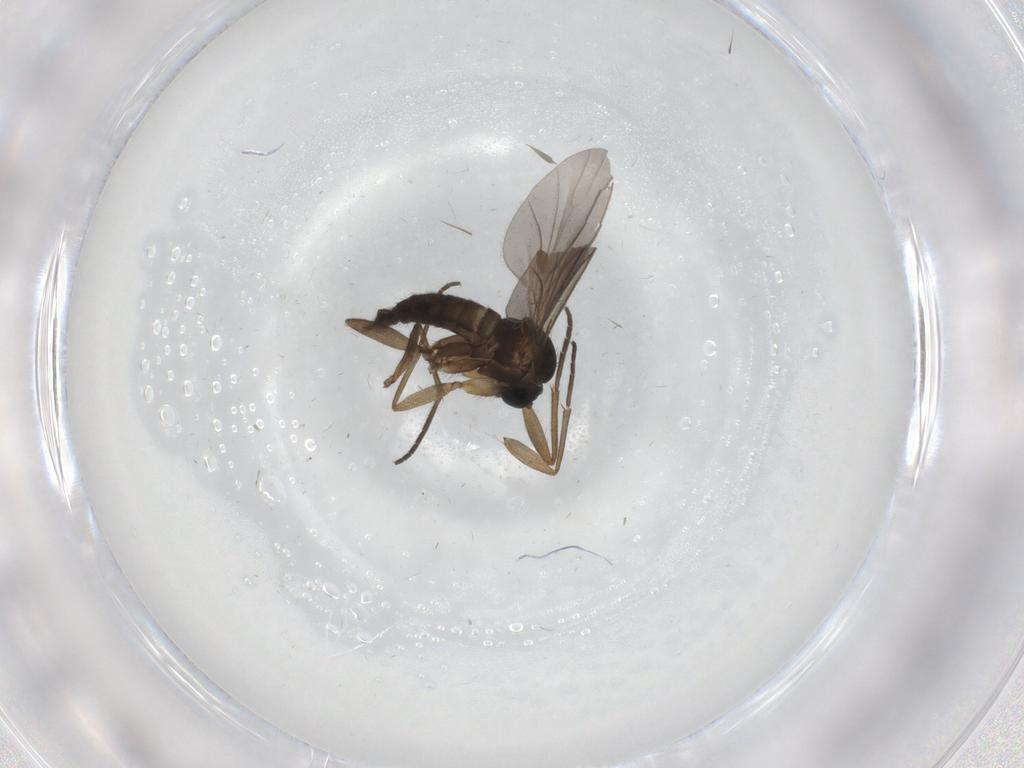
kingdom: Animalia
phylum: Arthropoda
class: Insecta
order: Diptera
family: Sciaridae
